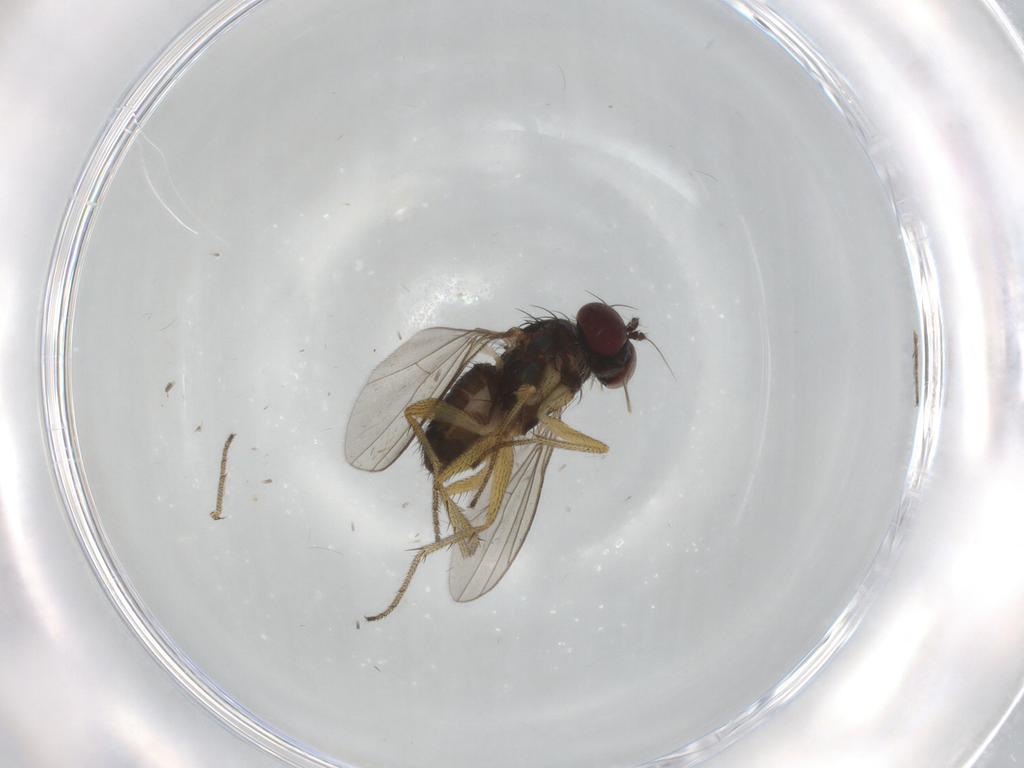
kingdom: Animalia
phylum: Arthropoda
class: Insecta
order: Diptera
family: Dolichopodidae
